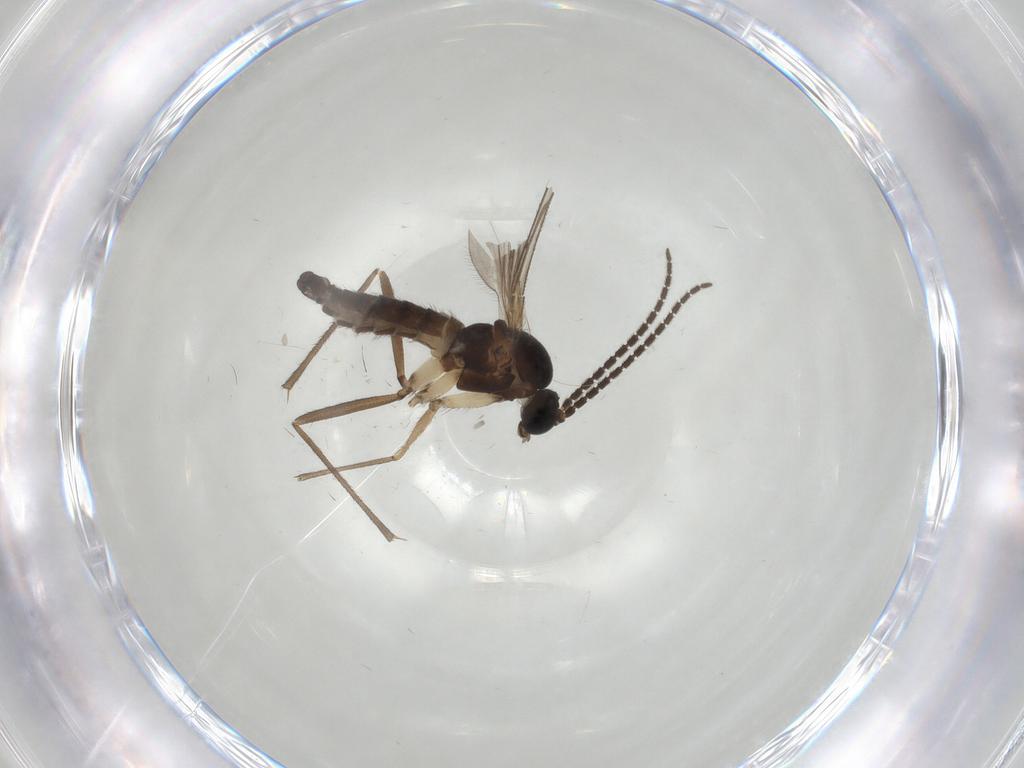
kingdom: Animalia
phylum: Arthropoda
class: Insecta
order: Diptera
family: Sciaridae
